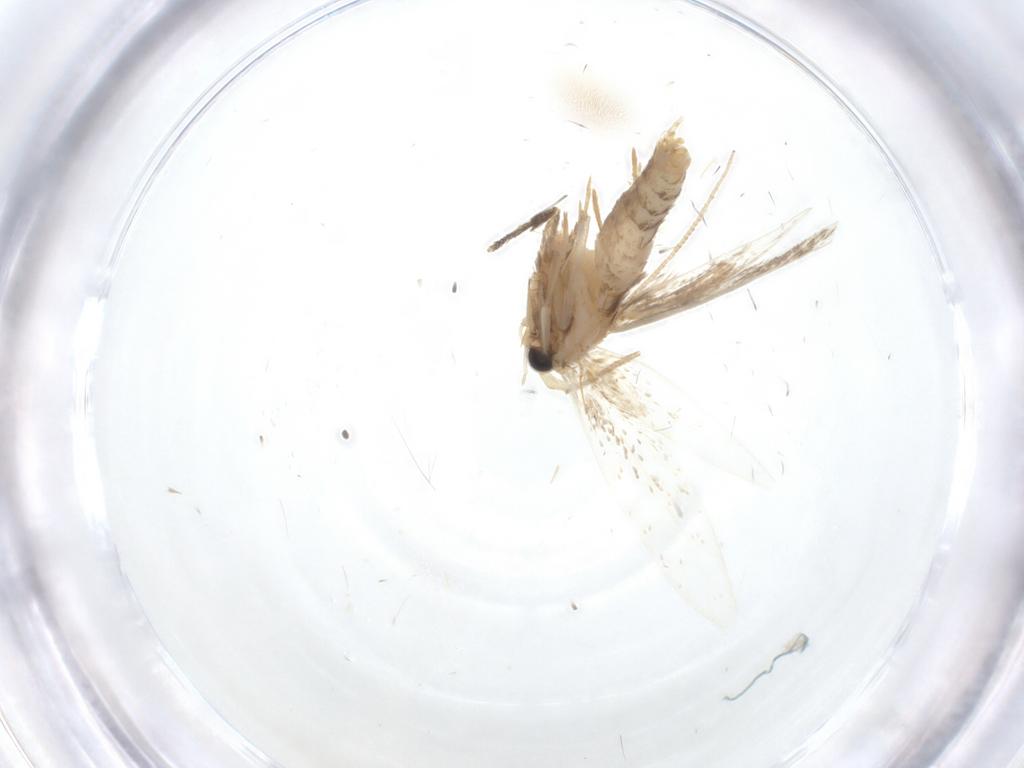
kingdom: Animalia
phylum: Arthropoda
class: Insecta
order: Lepidoptera
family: Tineidae
